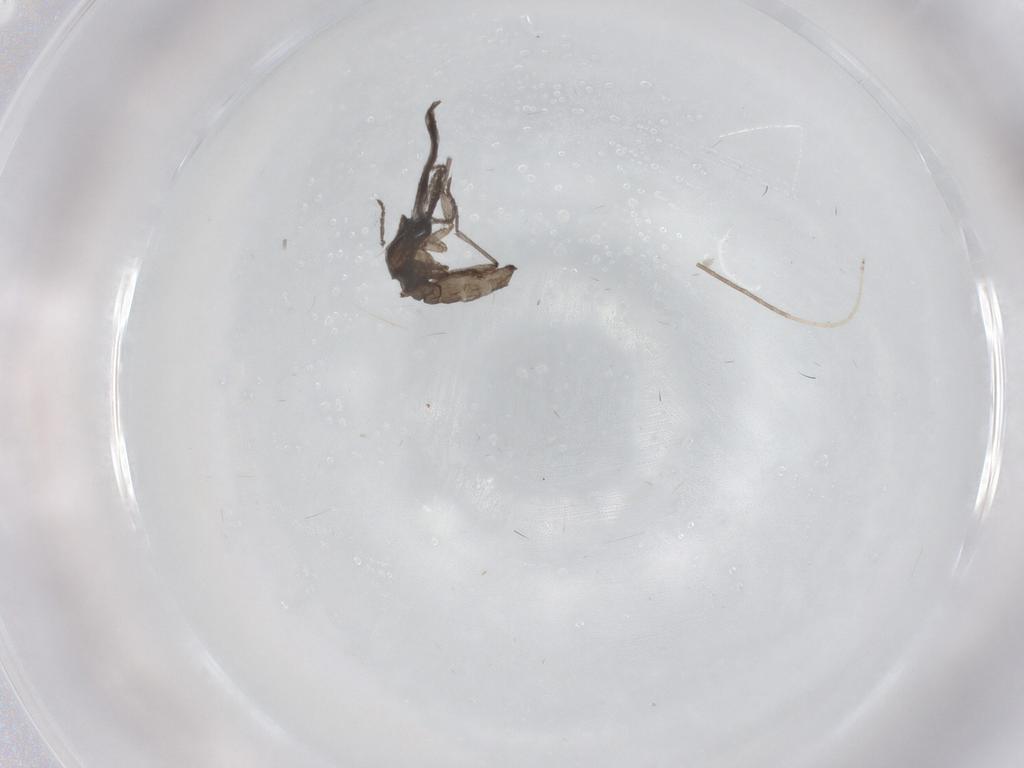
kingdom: Animalia
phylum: Arthropoda
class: Insecta
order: Diptera
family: Sciaridae
